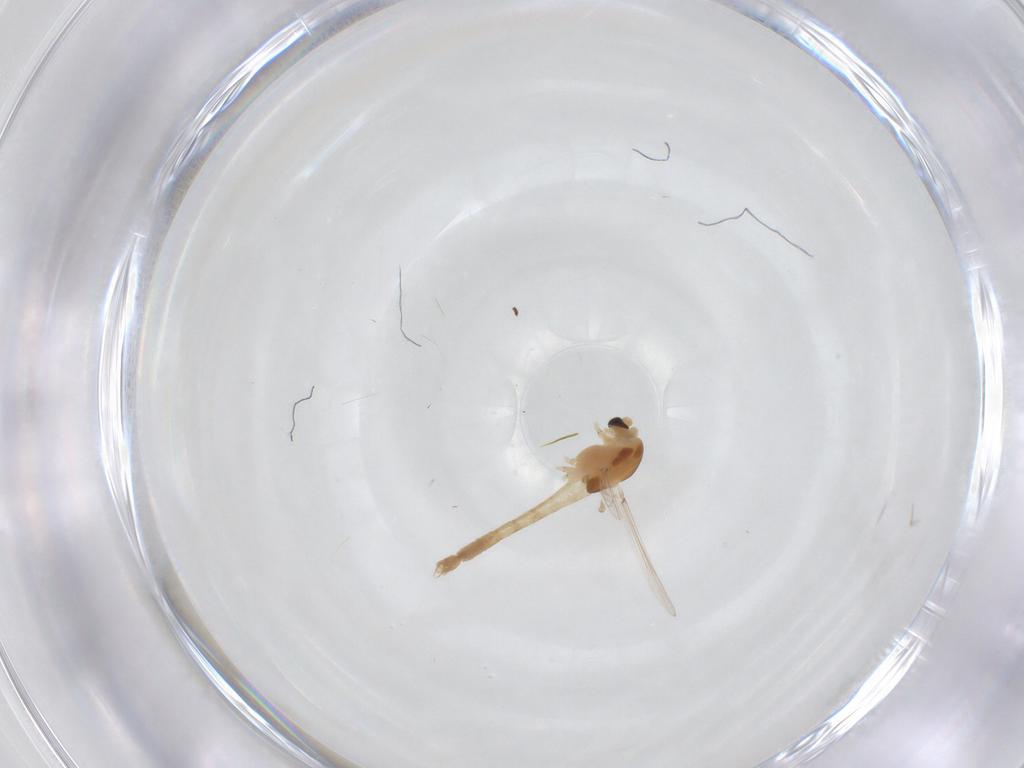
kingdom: Animalia
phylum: Arthropoda
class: Insecta
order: Diptera
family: Chironomidae
